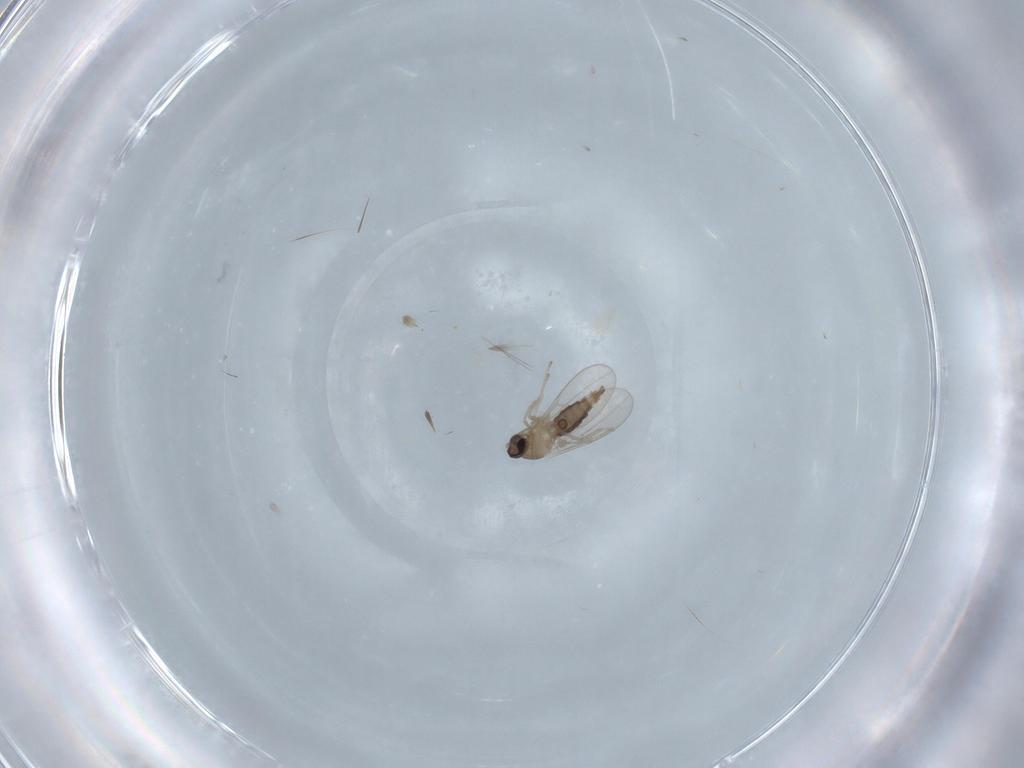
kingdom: Animalia
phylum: Arthropoda
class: Insecta
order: Diptera
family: Cecidomyiidae
